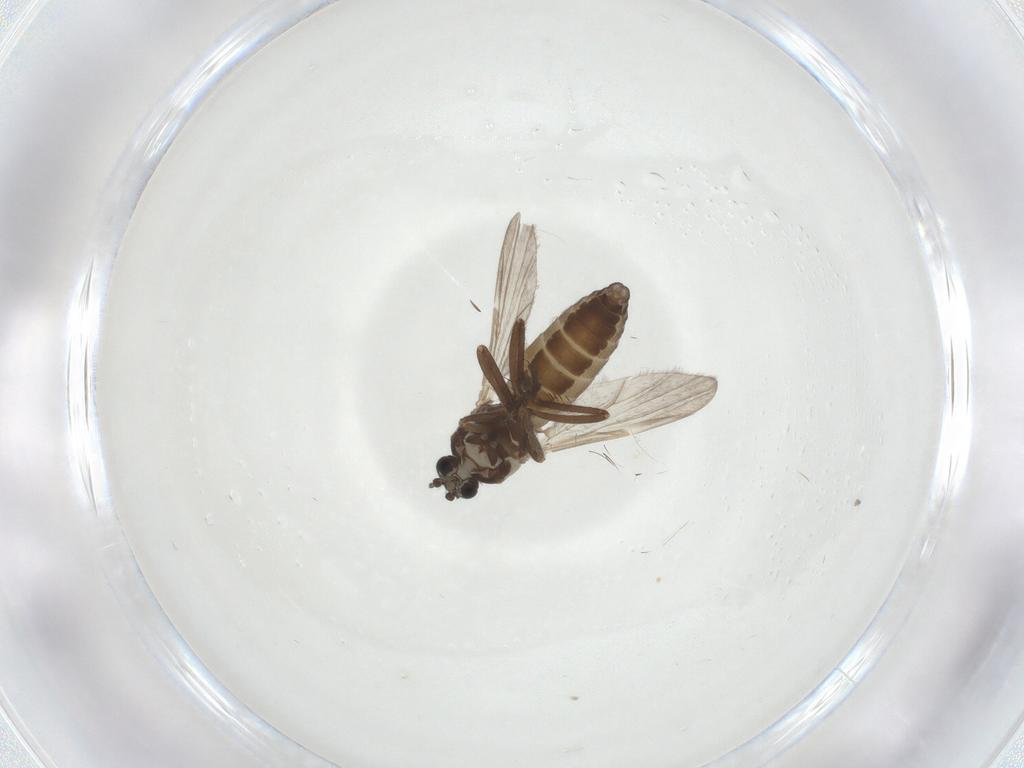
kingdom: Animalia
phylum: Arthropoda
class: Insecta
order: Diptera
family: Ceratopogonidae
